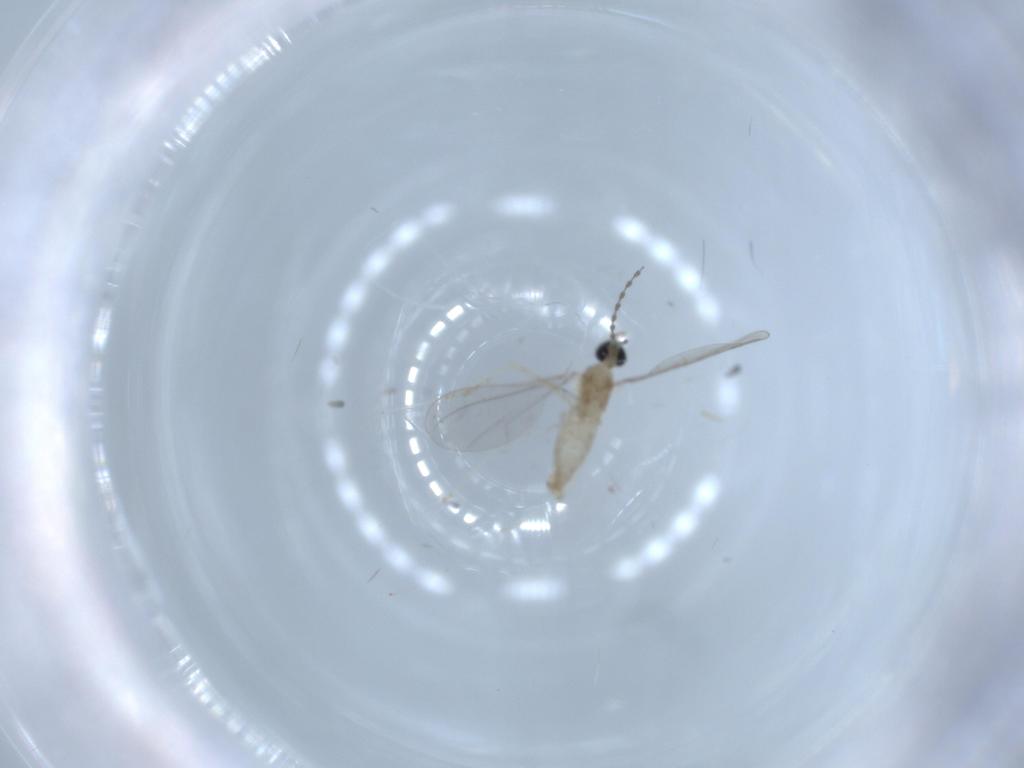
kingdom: Animalia
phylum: Arthropoda
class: Insecta
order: Diptera
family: Cecidomyiidae
